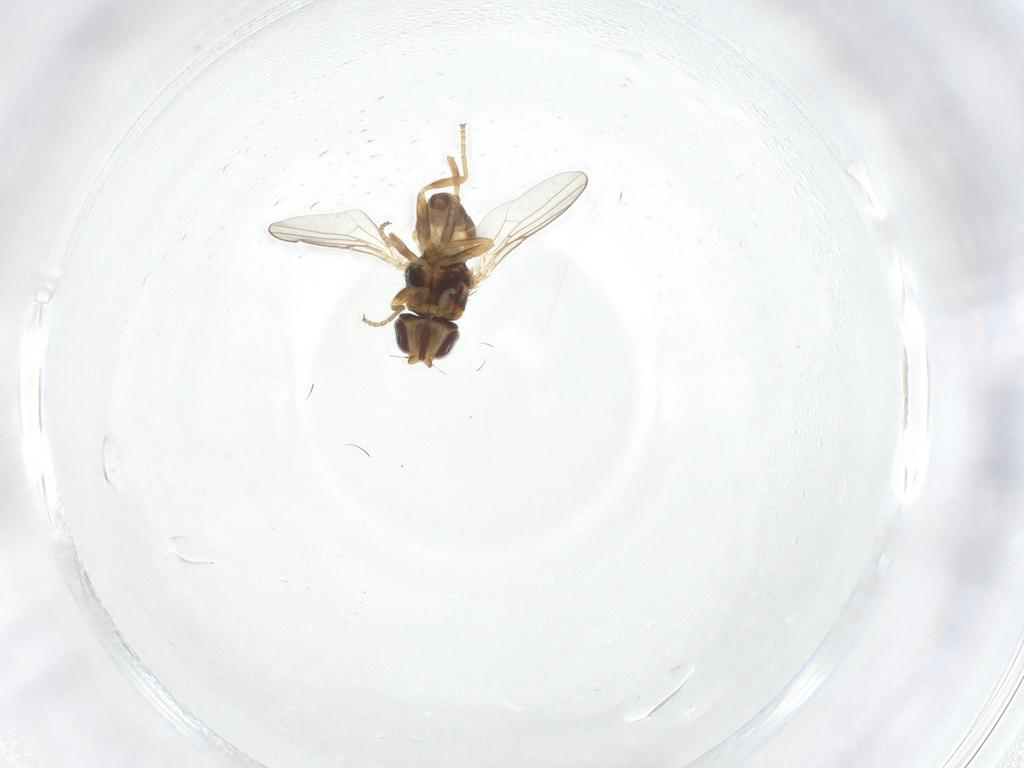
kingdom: Animalia
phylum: Arthropoda
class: Insecta
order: Diptera
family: Chloropidae
